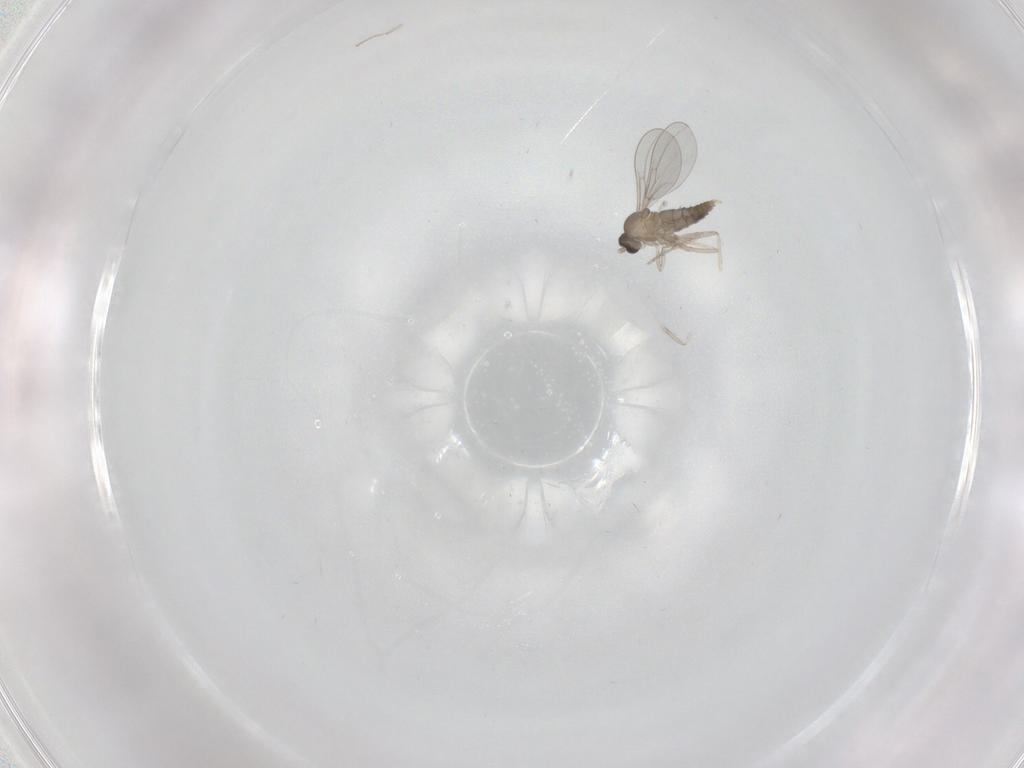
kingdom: Animalia
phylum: Arthropoda
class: Insecta
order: Diptera
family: Cecidomyiidae
